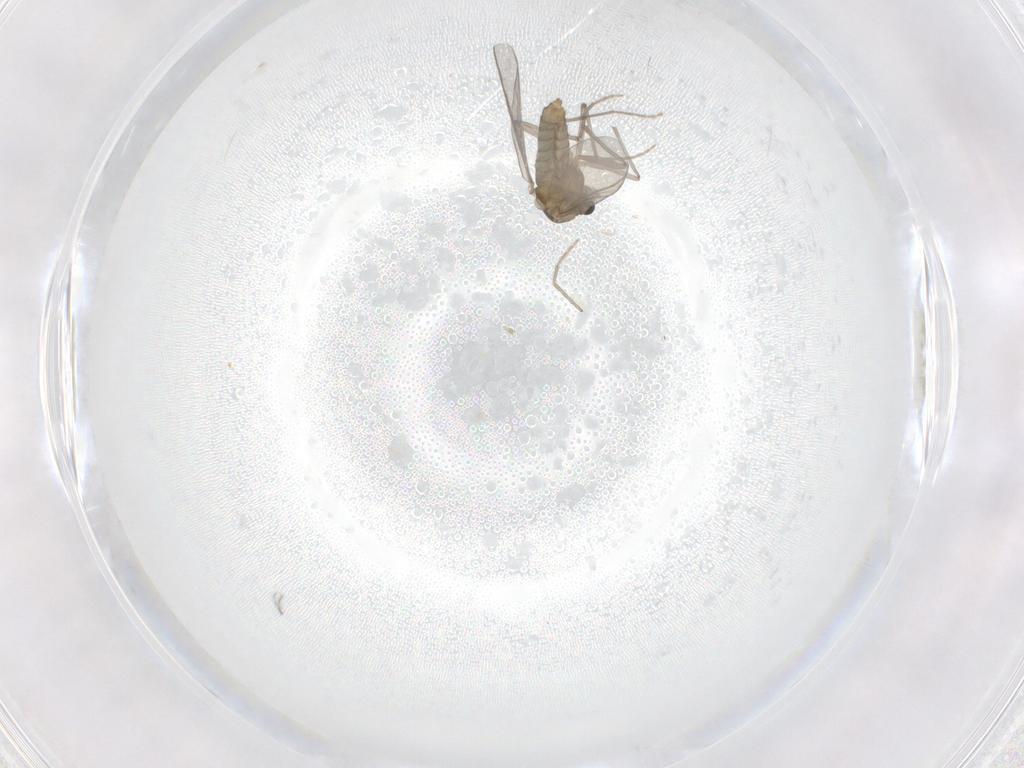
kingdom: Animalia
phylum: Arthropoda
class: Insecta
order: Diptera
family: Chironomidae
